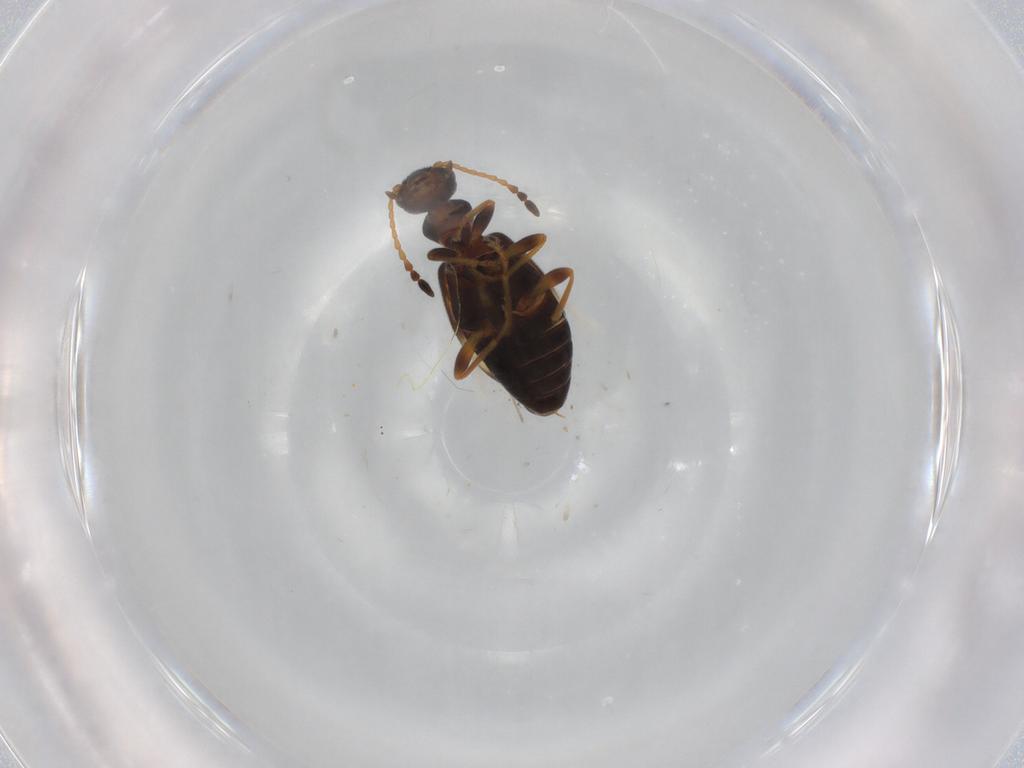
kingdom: Animalia
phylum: Arthropoda
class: Insecta
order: Coleoptera
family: Anthicidae
